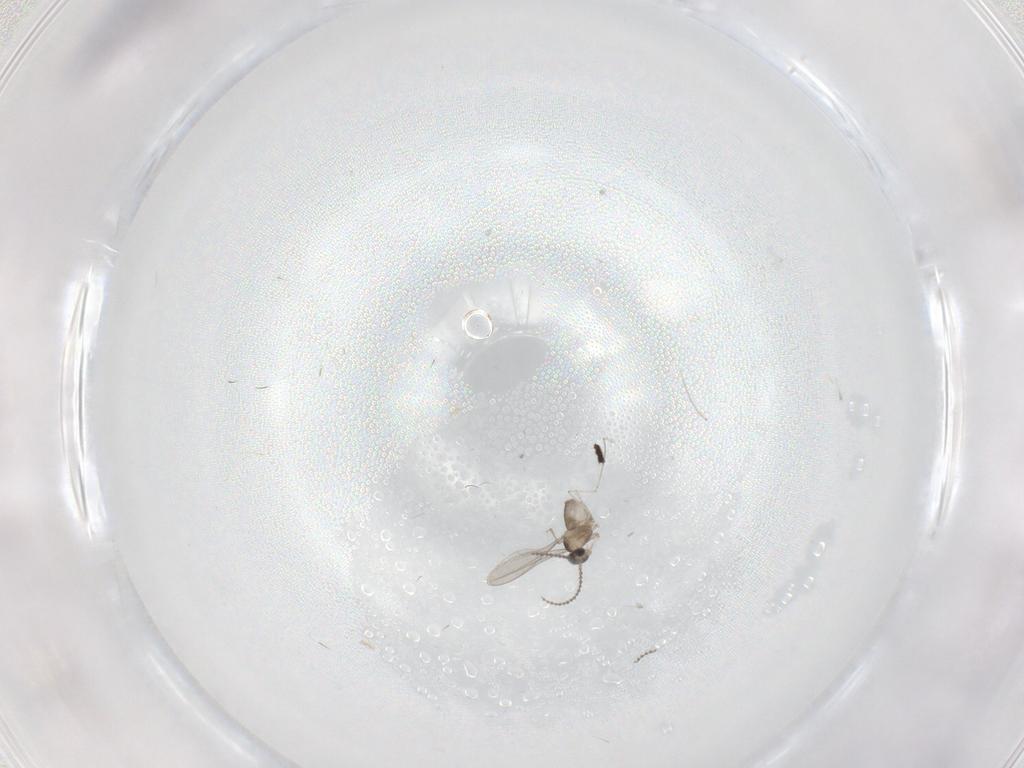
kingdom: Animalia
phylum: Arthropoda
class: Insecta
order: Diptera
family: Cecidomyiidae
